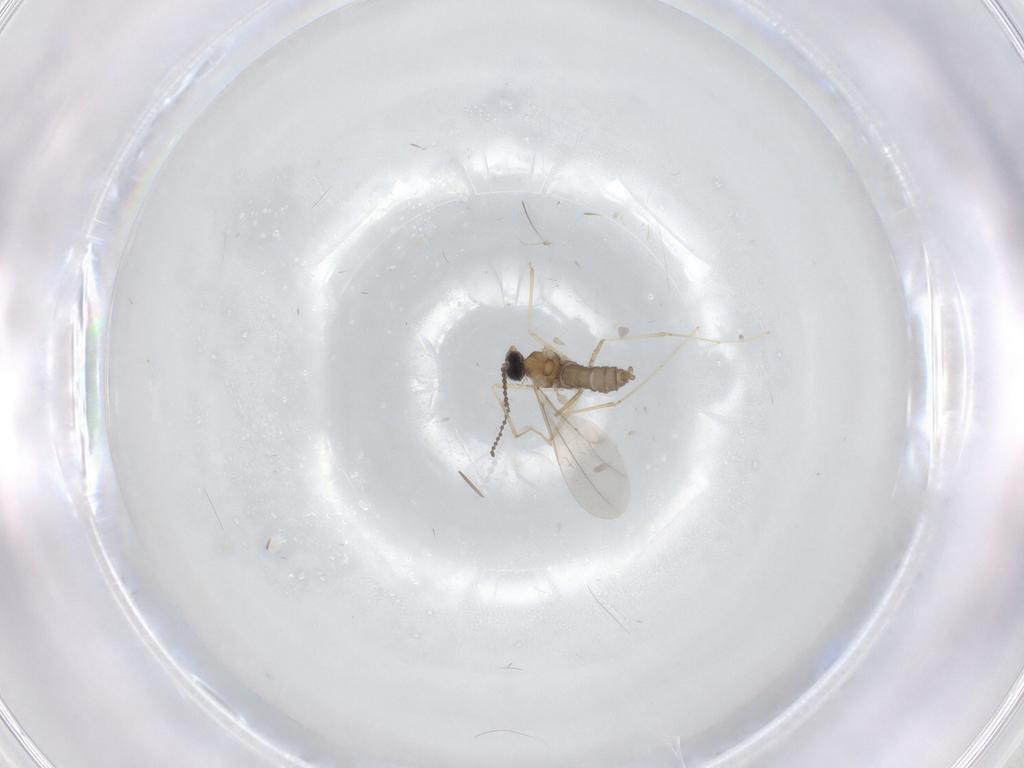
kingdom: Animalia
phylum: Arthropoda
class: Insecta
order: Diptera
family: Cecidomyiidae
